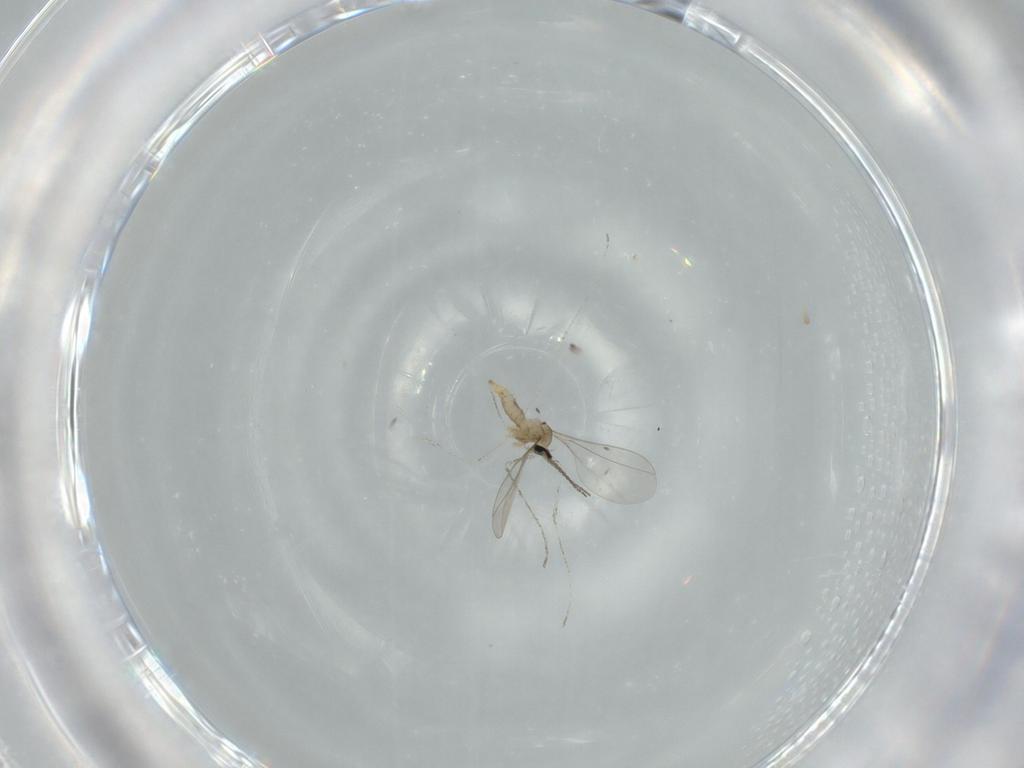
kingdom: Animalia
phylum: Arthropoda
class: Insecta
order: Diptera
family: Cecidomyiidae
